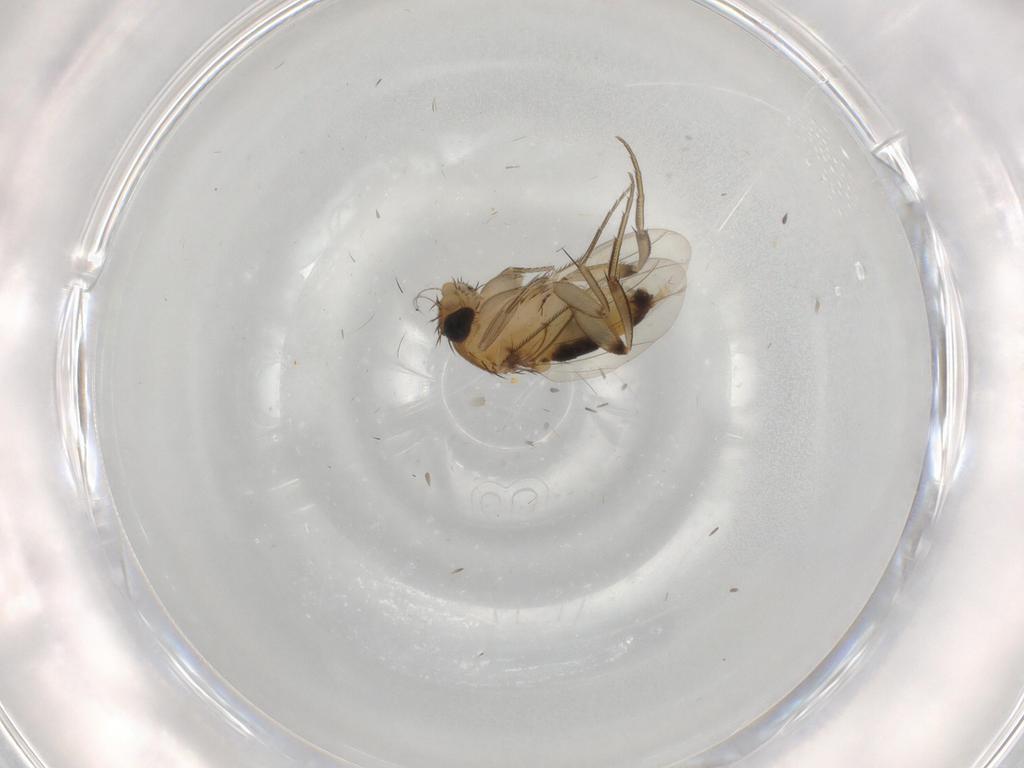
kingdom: Animalia
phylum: Arthropoda
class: Insecta
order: Diptera
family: Phoridae
